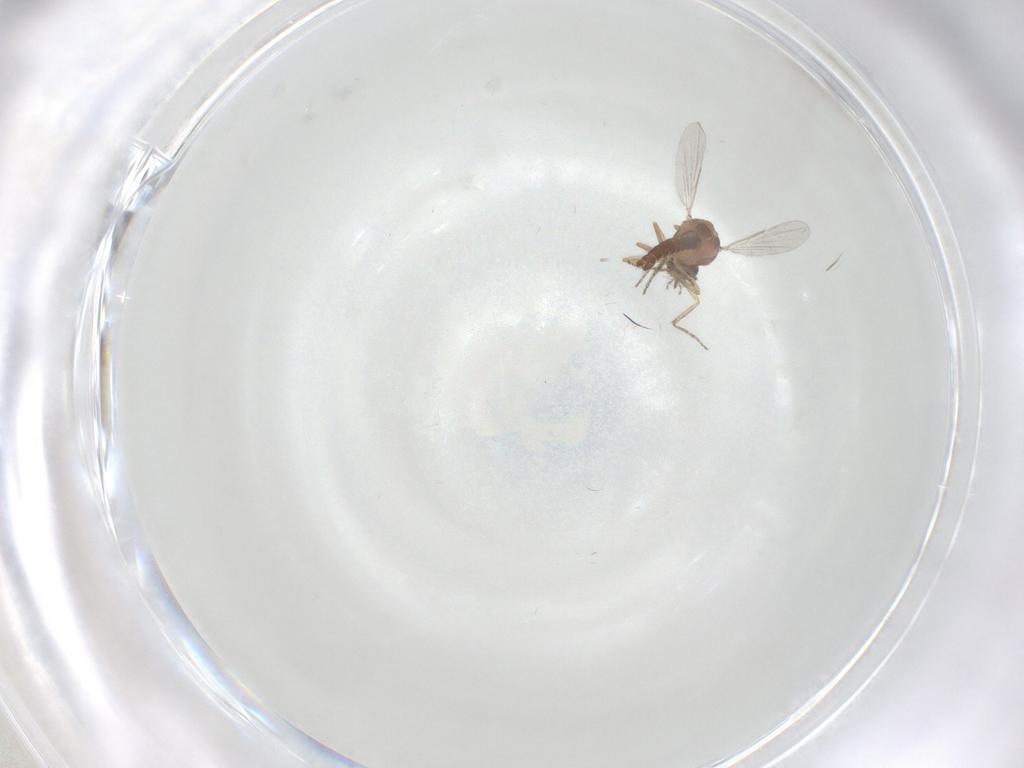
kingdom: Animalia
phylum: Arthropoda
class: Insecta
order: Diptera
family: Ceratopogonidae
